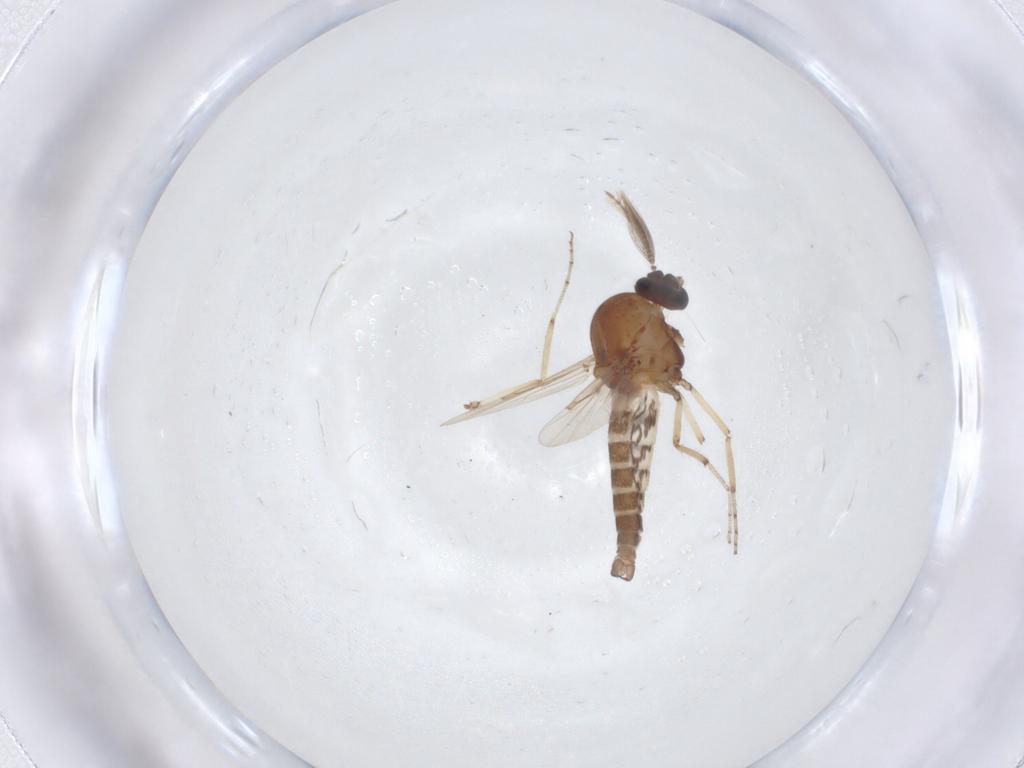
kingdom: Animalia
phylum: Arthropoda
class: Insecta
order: Diptera
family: Ceratopogonidae
